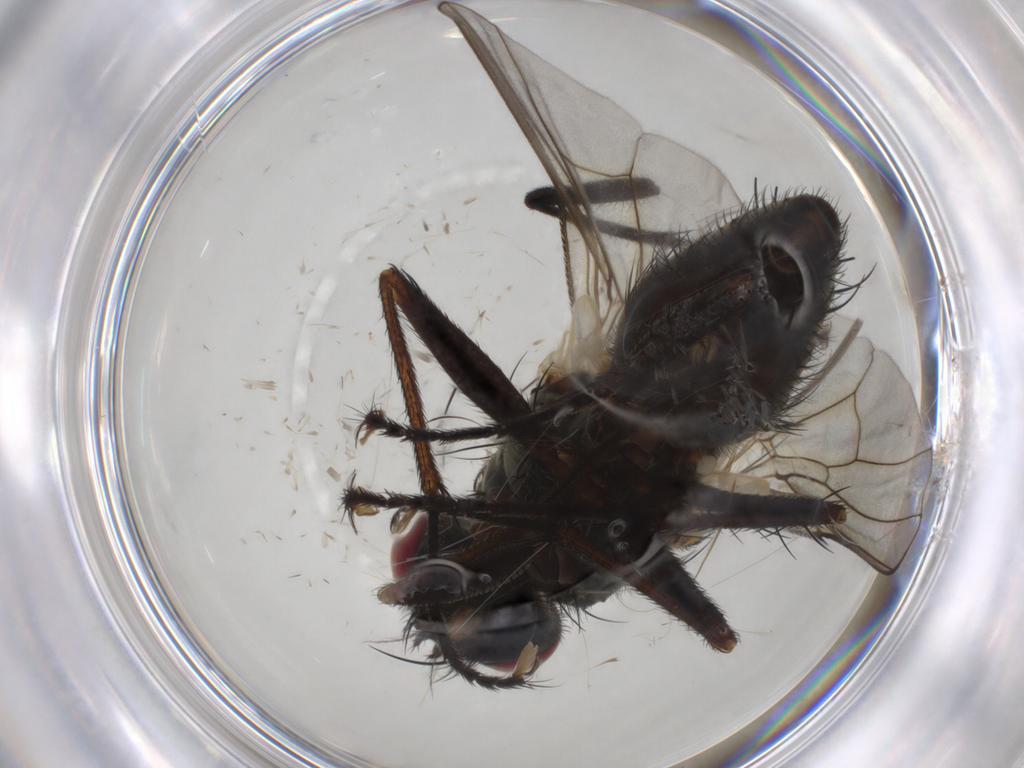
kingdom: Animalia
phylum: Arthropoda
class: Insecta
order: Diptera
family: Muscidae
